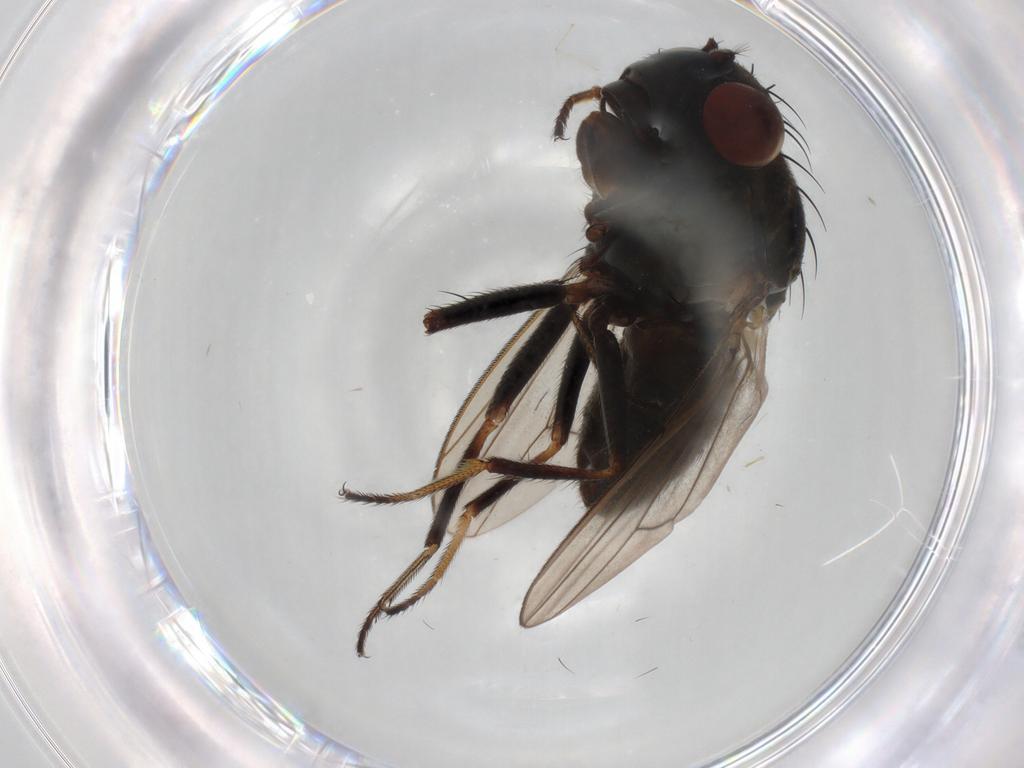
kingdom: Animalia
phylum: Arthropoda
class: Insecta
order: Diptera
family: Ephydridae
